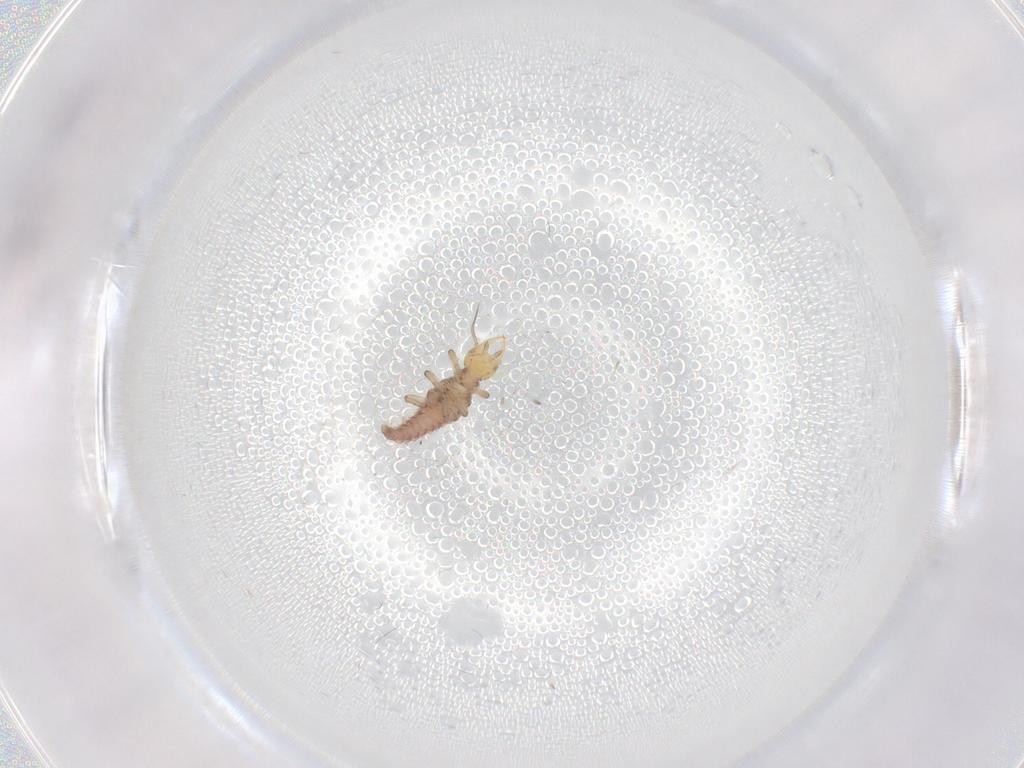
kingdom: Animalia
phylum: Arthropoda
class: Insecta
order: Neuroptera
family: Hemerobiidae
